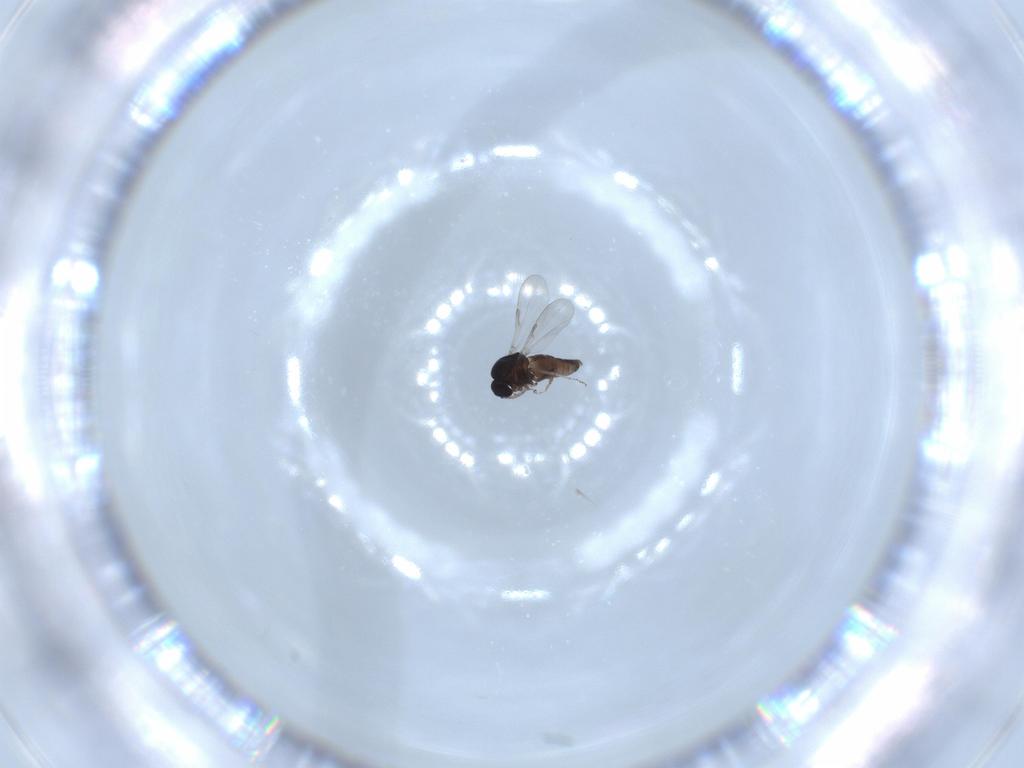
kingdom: Animalia
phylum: Arthropoda
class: Insecta
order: Diptera
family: Ceratopogonidae
